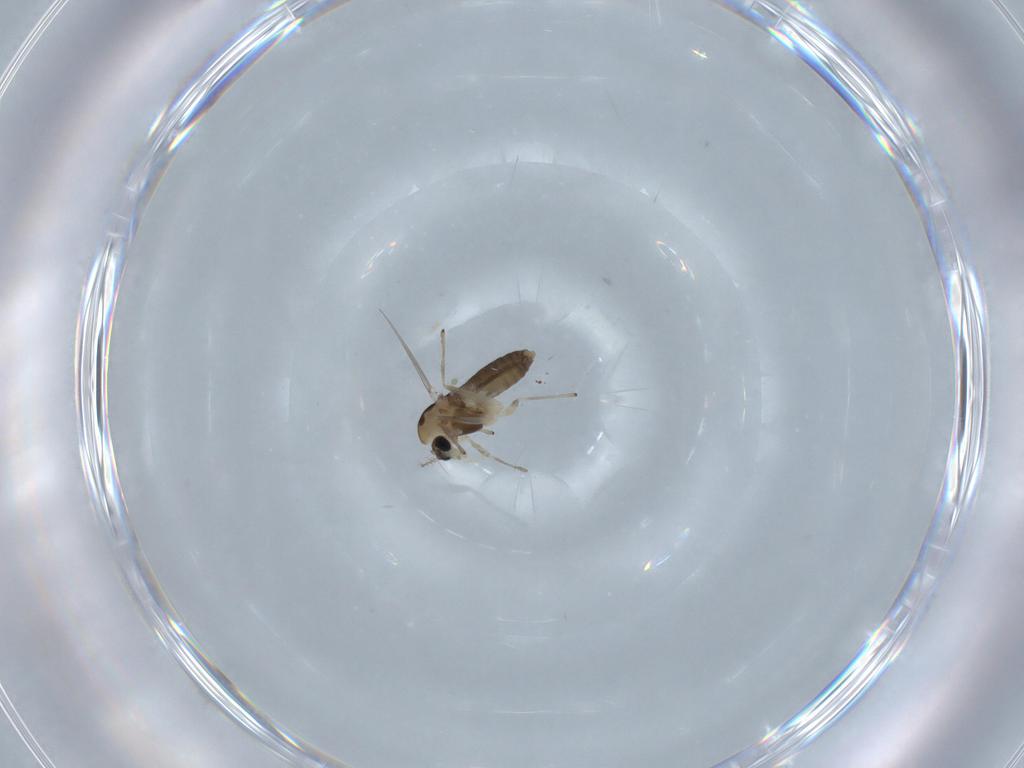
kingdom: Animalia
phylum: Arthropoda
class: Insecta
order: Diptera
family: Chironomidae
